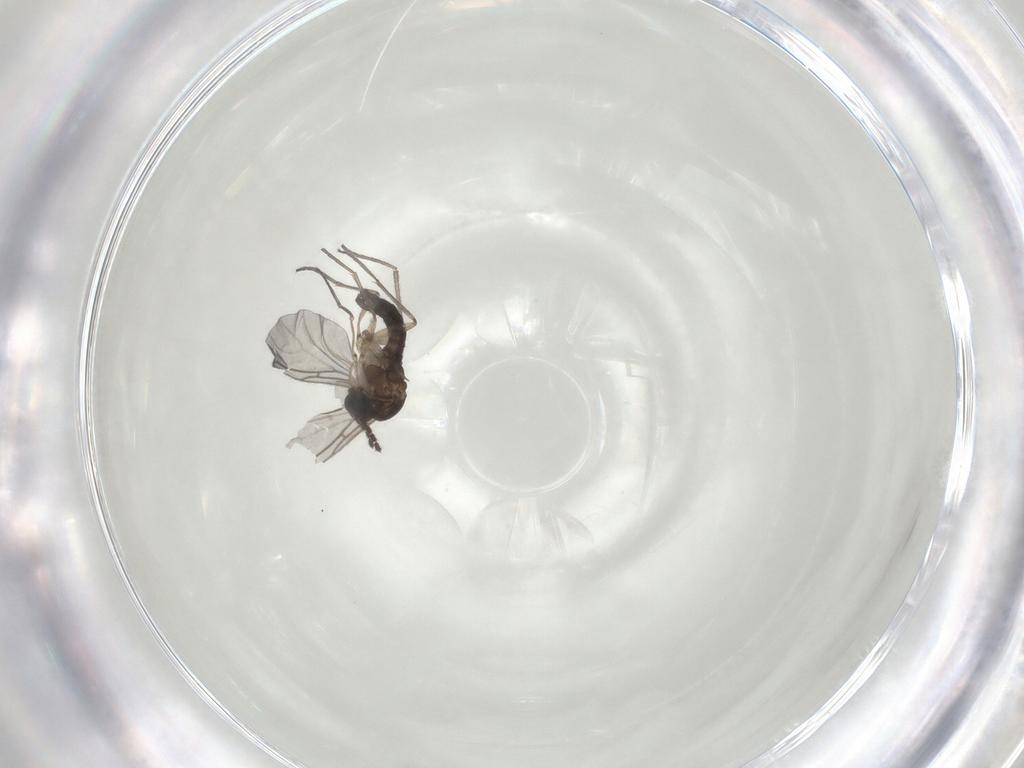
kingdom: Animalia
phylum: Arthropoda
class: Insecta
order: Diptera
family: Sciaridae
